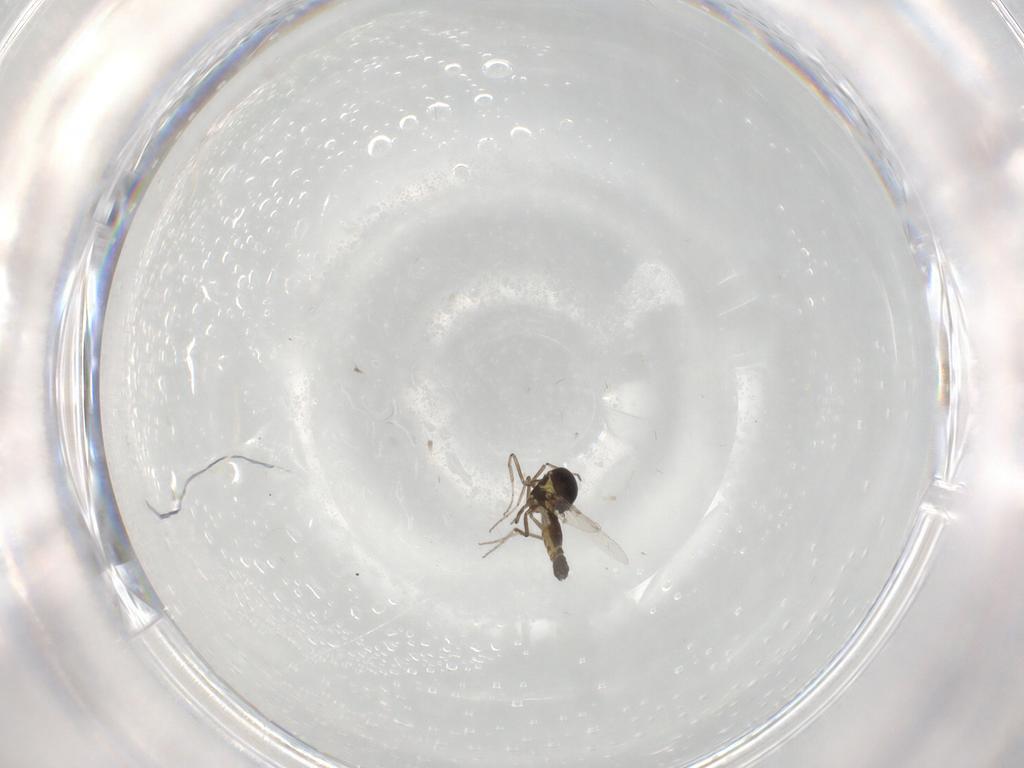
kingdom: Animalia
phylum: Arthropoda
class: Insecta
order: Diptera
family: Ceratopogonidae
